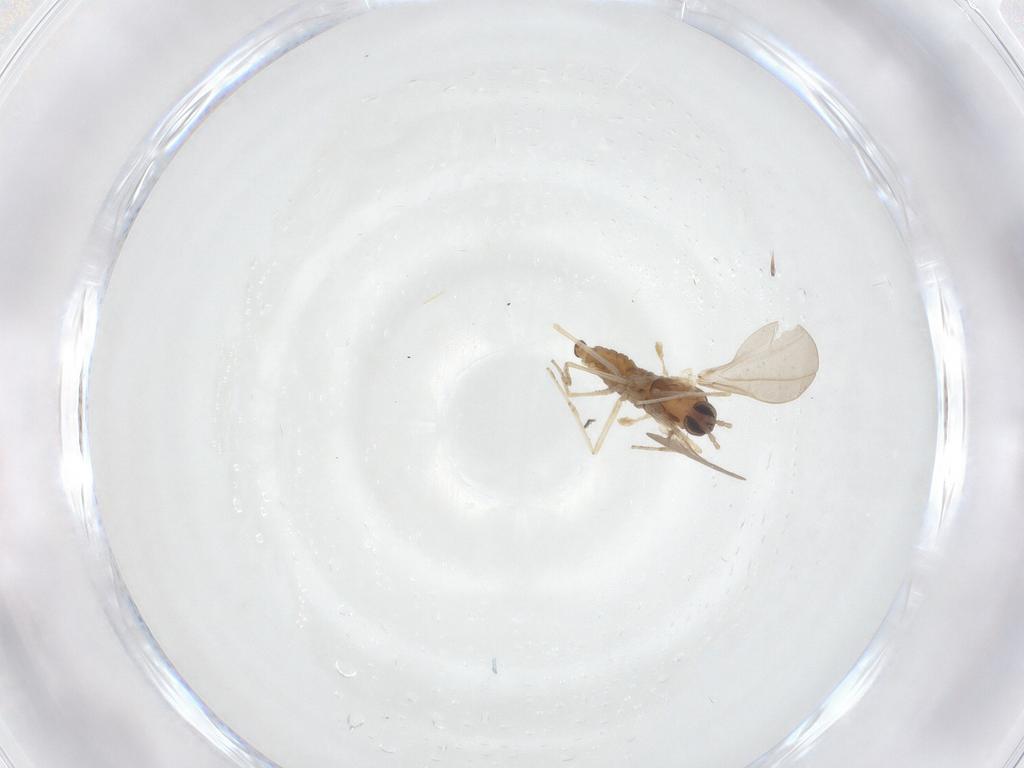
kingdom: Animalia
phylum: Arthropoda
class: Insecta
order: Diptera
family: Cecidomyiidae
